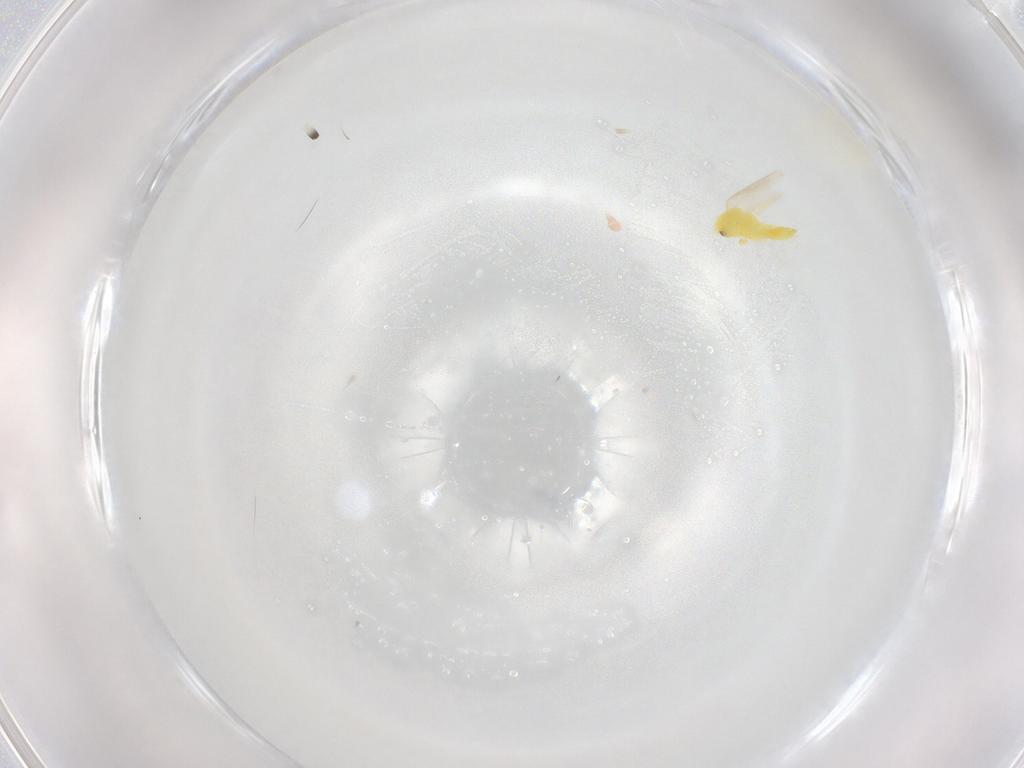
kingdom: Animalia
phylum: Arthropoda
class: Insecta
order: Hemiptera
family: Aleyrodidae
